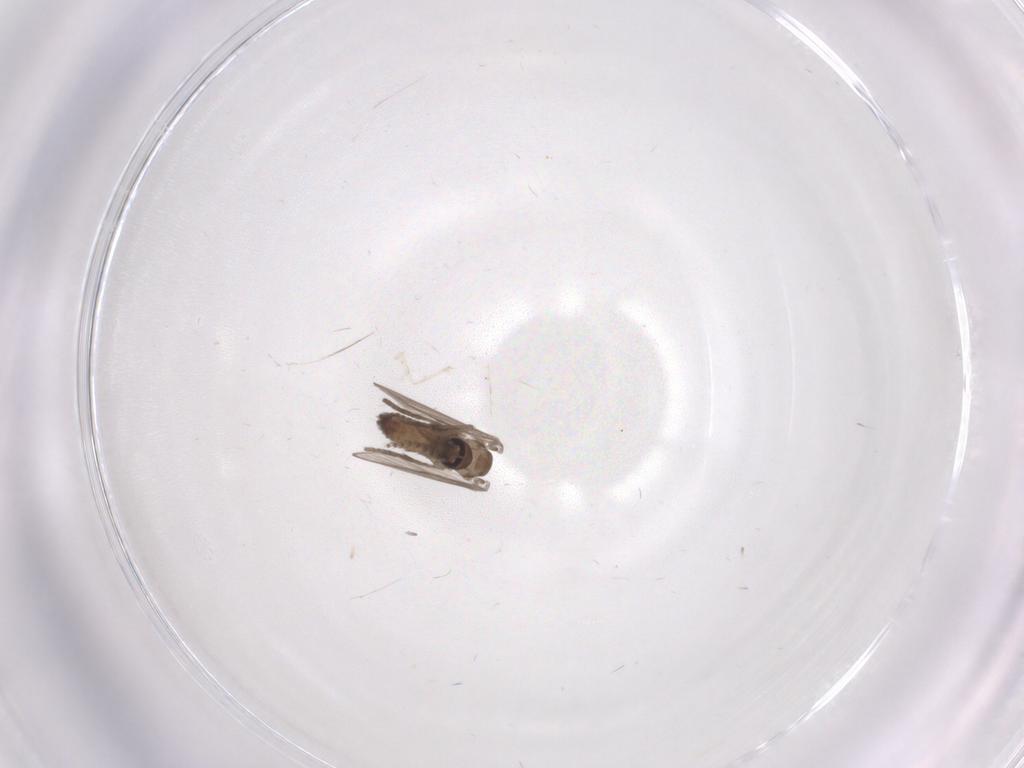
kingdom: Animalia
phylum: Arthropoda
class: Insecta
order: Diptera
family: Psychodidae
